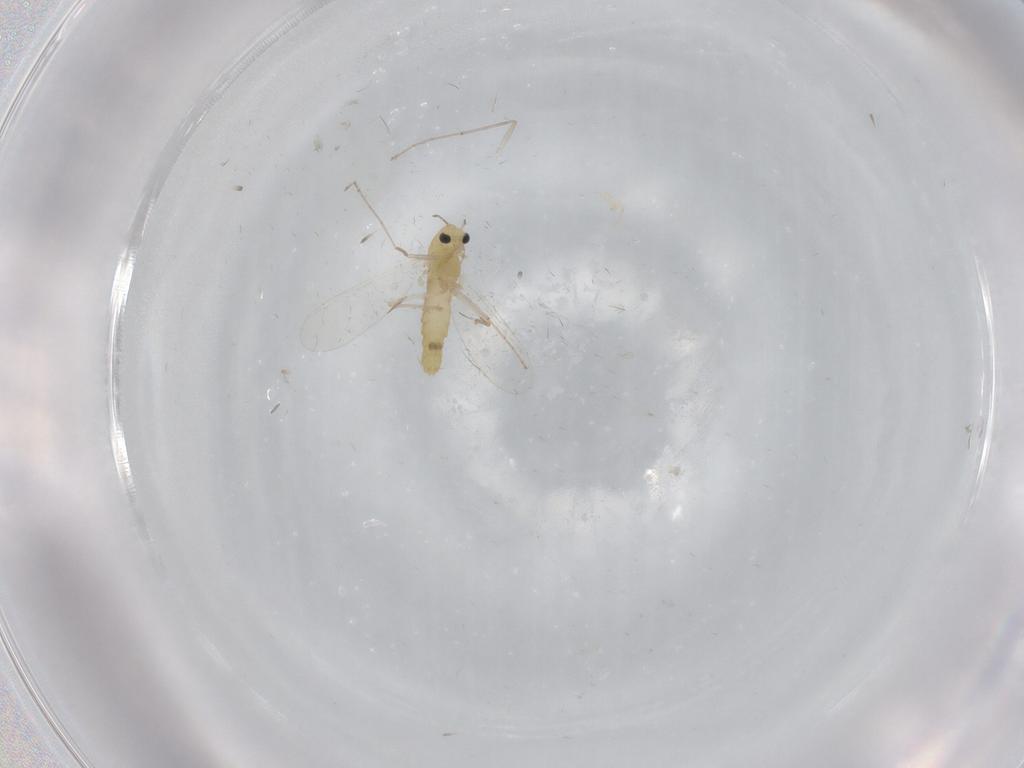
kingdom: Animalia
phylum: Arthropoda
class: Insecta
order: Diptera
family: Chironomidae
